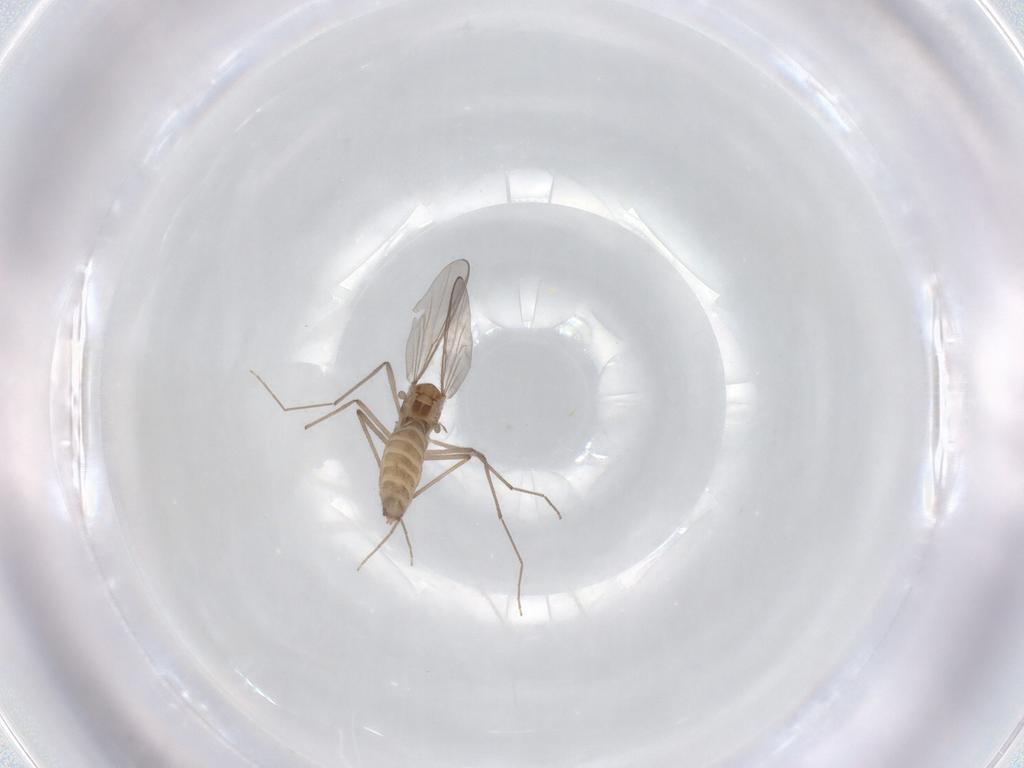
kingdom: Animalia
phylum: Arthropoda
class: Insecta
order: Diptera
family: Chironomidae
